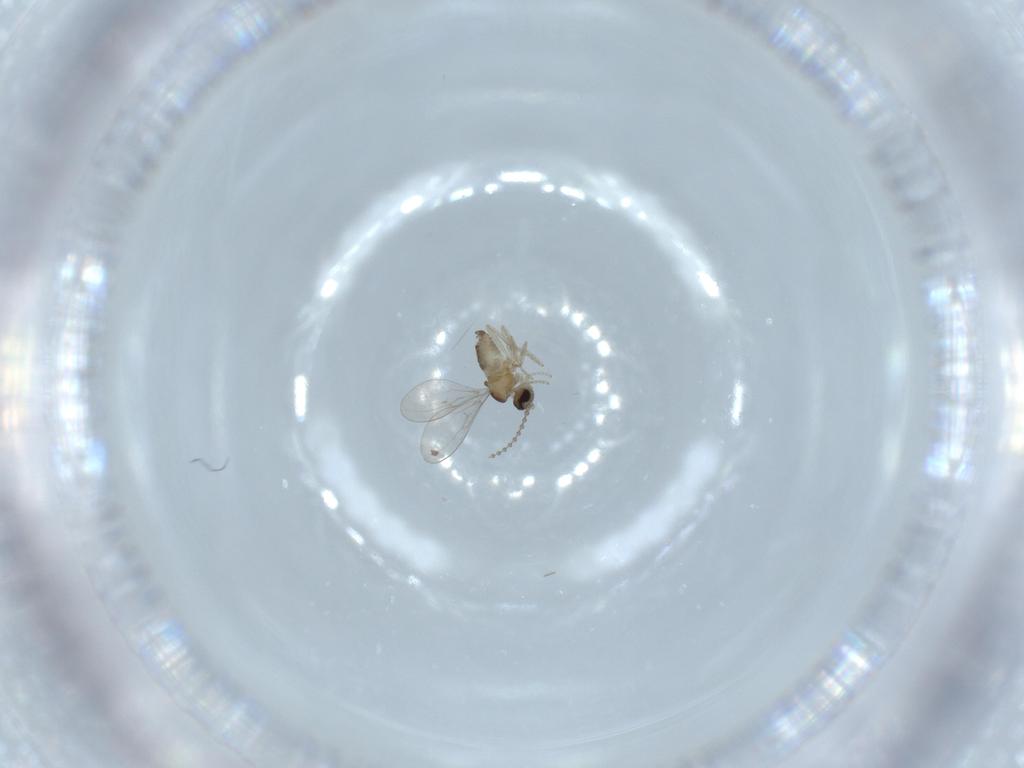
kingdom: Animalia
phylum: Arthropoda
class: Insecta
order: Diptera
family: Cecidomyiidae
